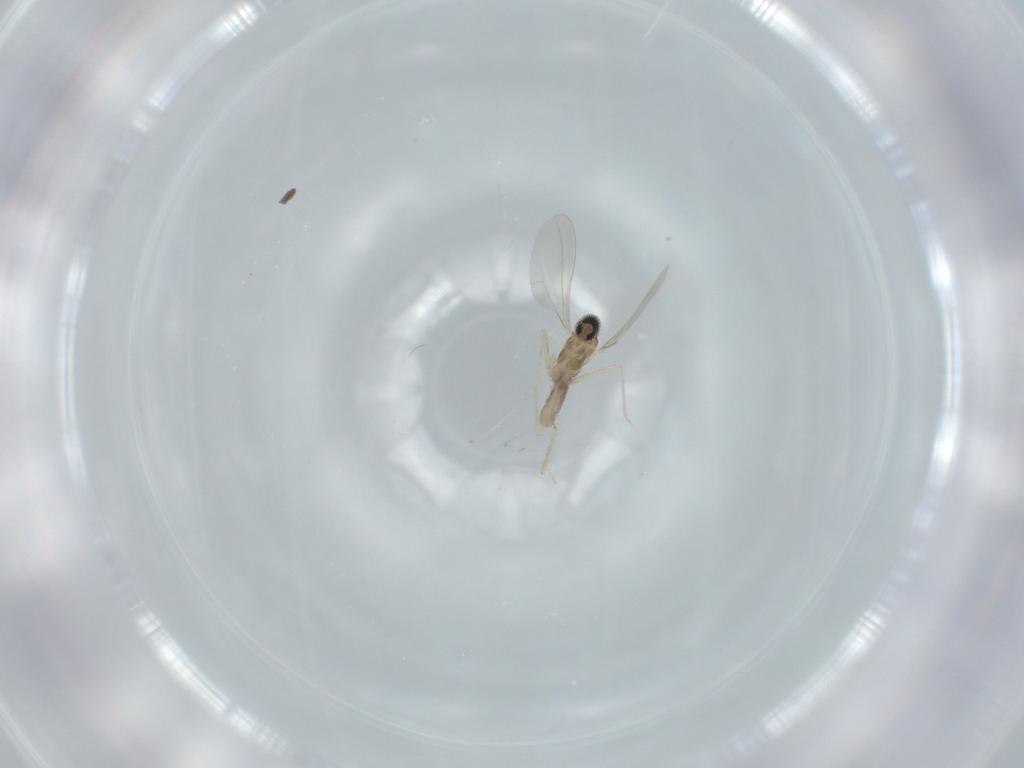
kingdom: Animalia
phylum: Arthropoda
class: Insecta
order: Diptera
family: Cecidomyiidae
